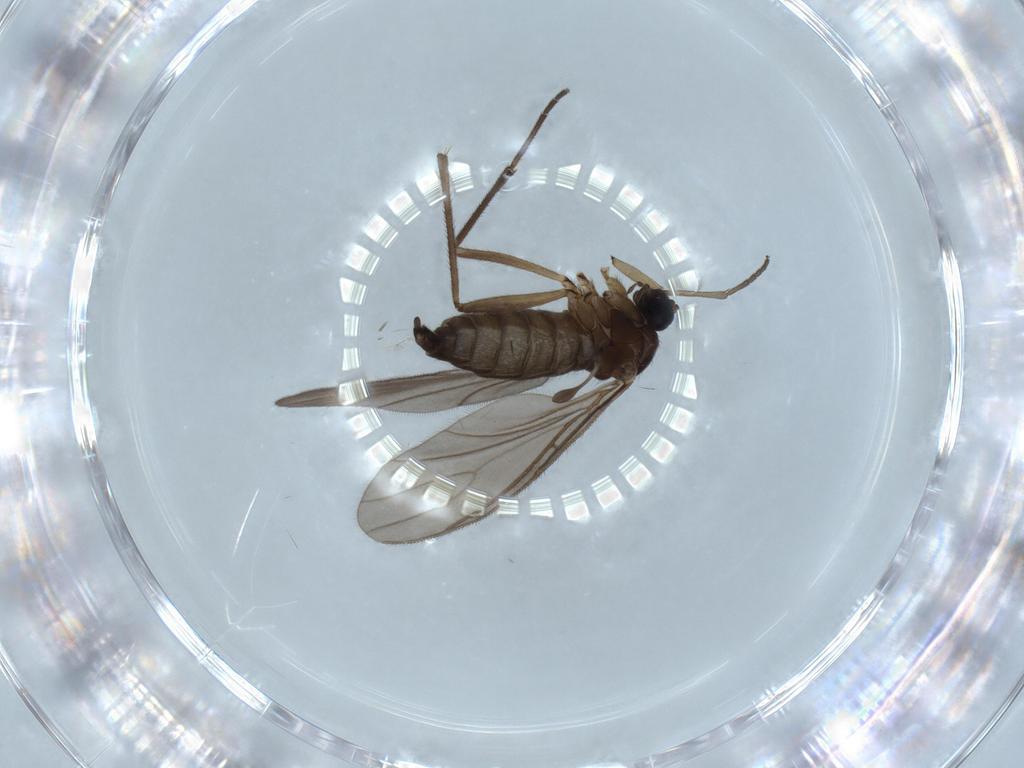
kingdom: Animalia
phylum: Arthropoda
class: Insecta
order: Diptera
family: Sciaridae
